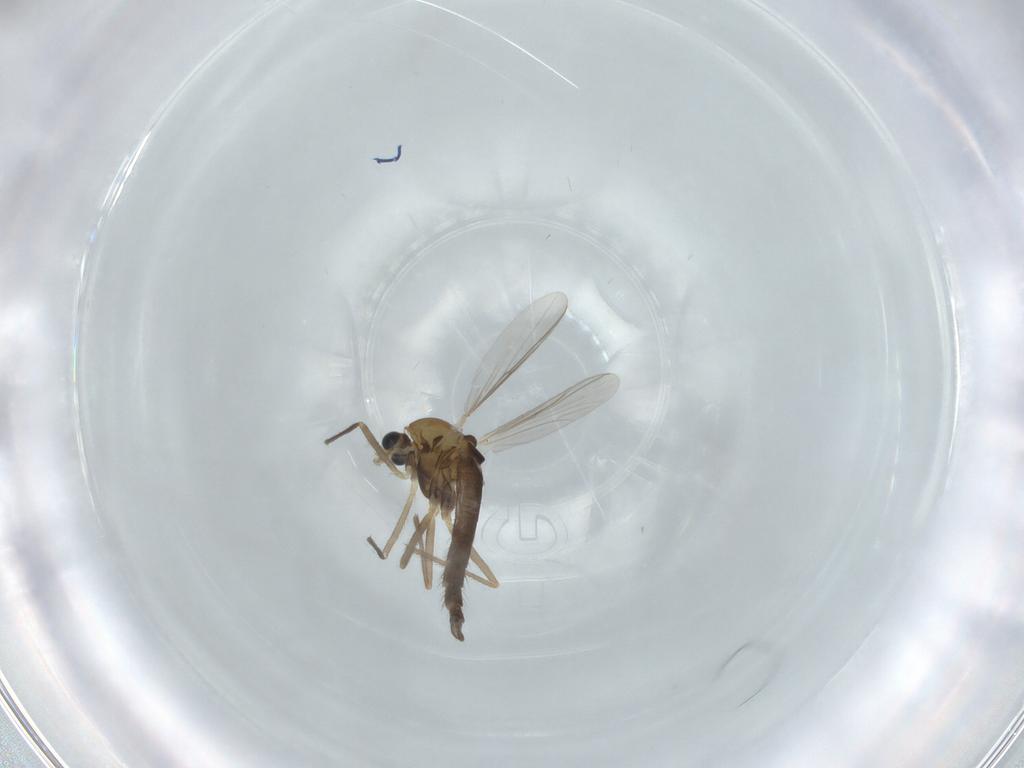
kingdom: Animalia
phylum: Arthropoda
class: Insecta
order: Diptera
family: Chironomidae
